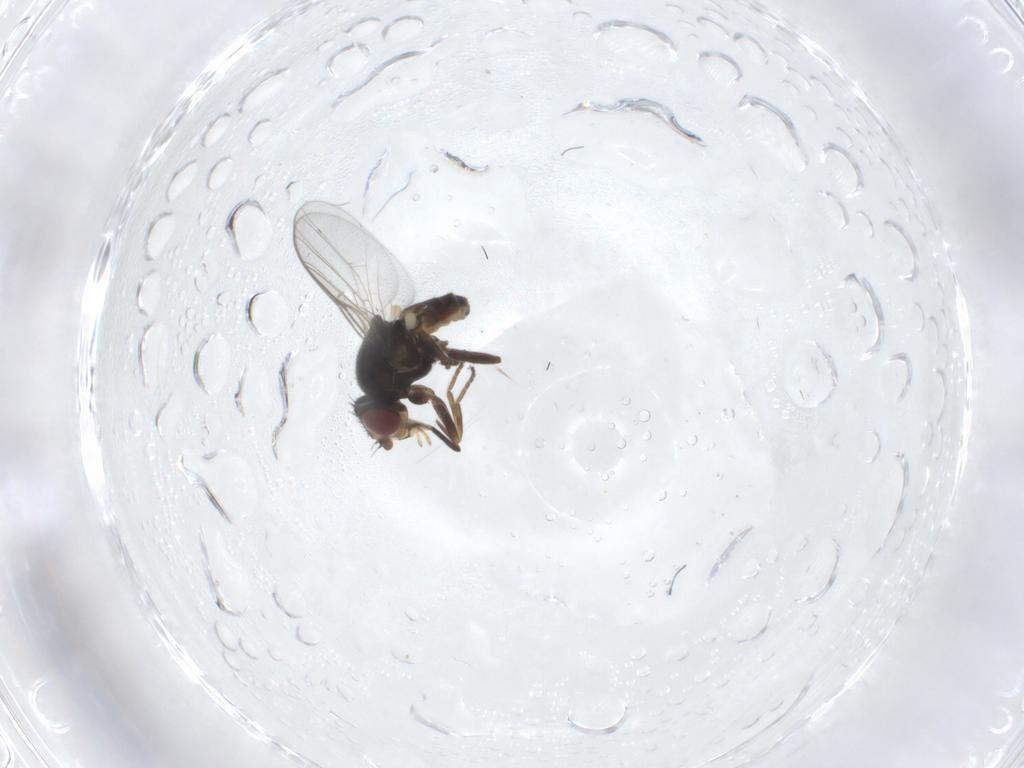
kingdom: Animalia
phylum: Arthropoda
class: Insecta
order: Diptera
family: Chloropidae
